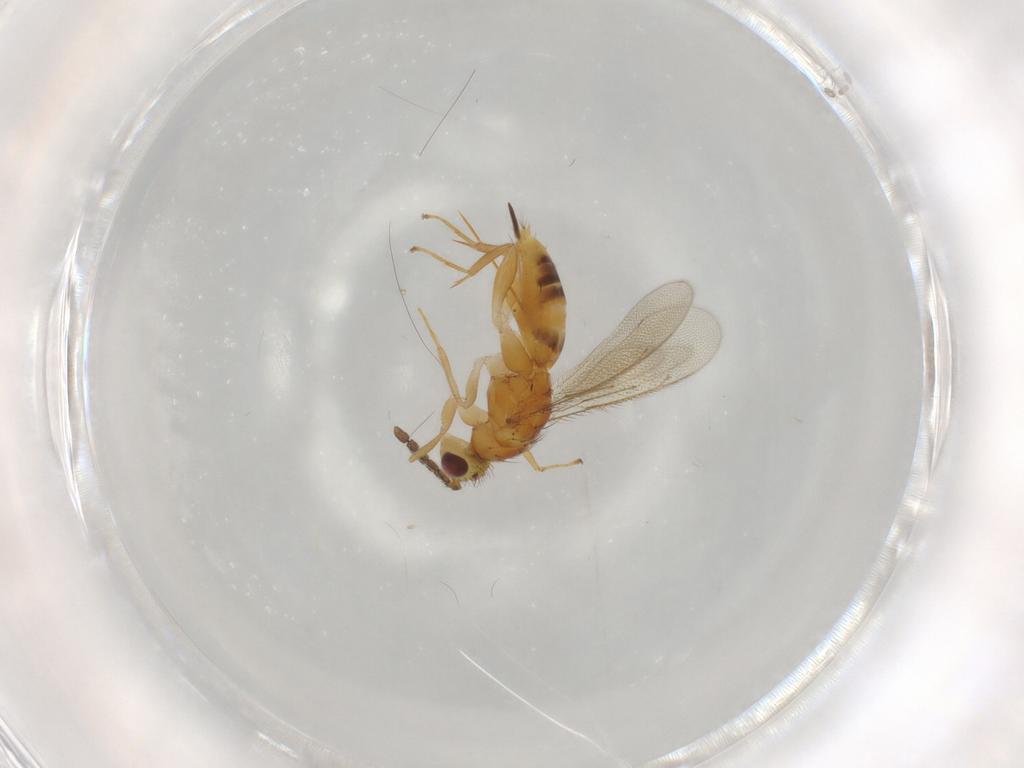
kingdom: Animalia
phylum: Arthropoda
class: Insecta
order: Hymenoptera
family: Eulophidae
